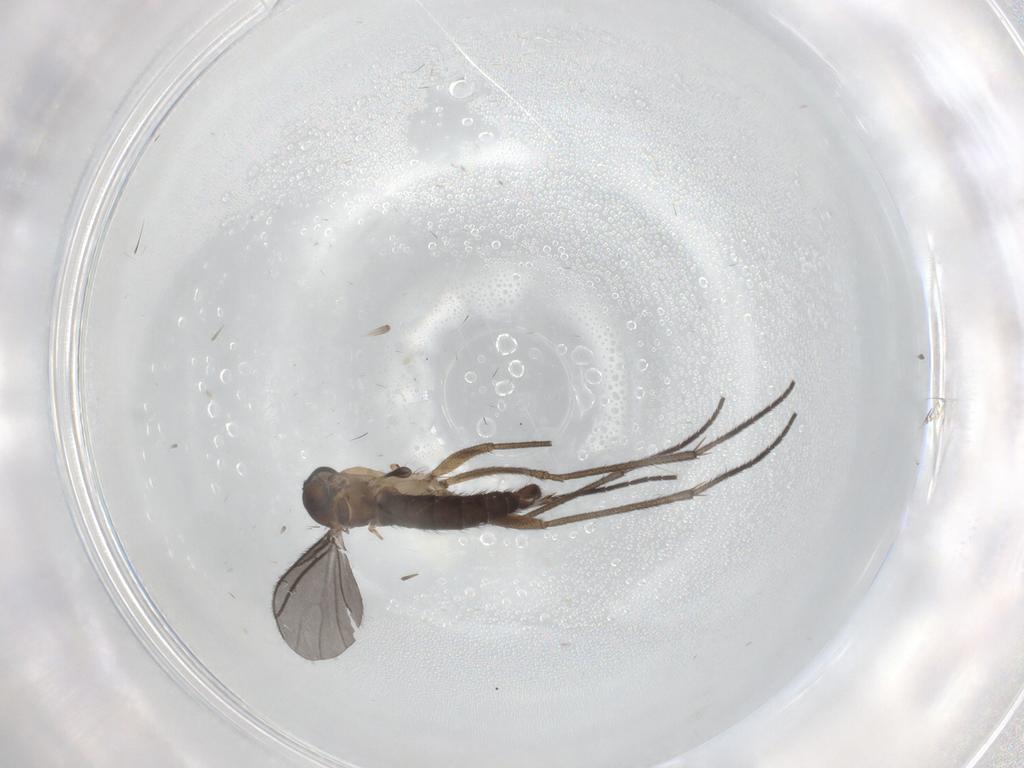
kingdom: Animalia
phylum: Arthropoda
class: Insecta
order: Diptera
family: Sciaridae
